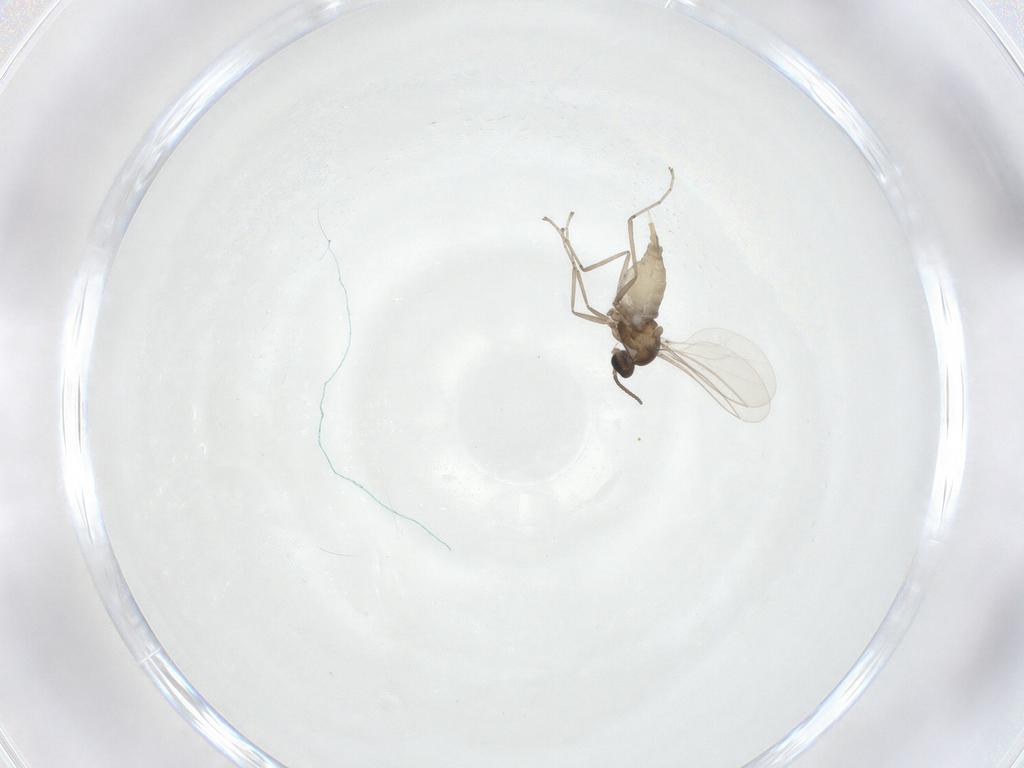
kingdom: Animalia
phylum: Arthropoda
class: Insecta
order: Diptera
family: Cecidomyiidae
